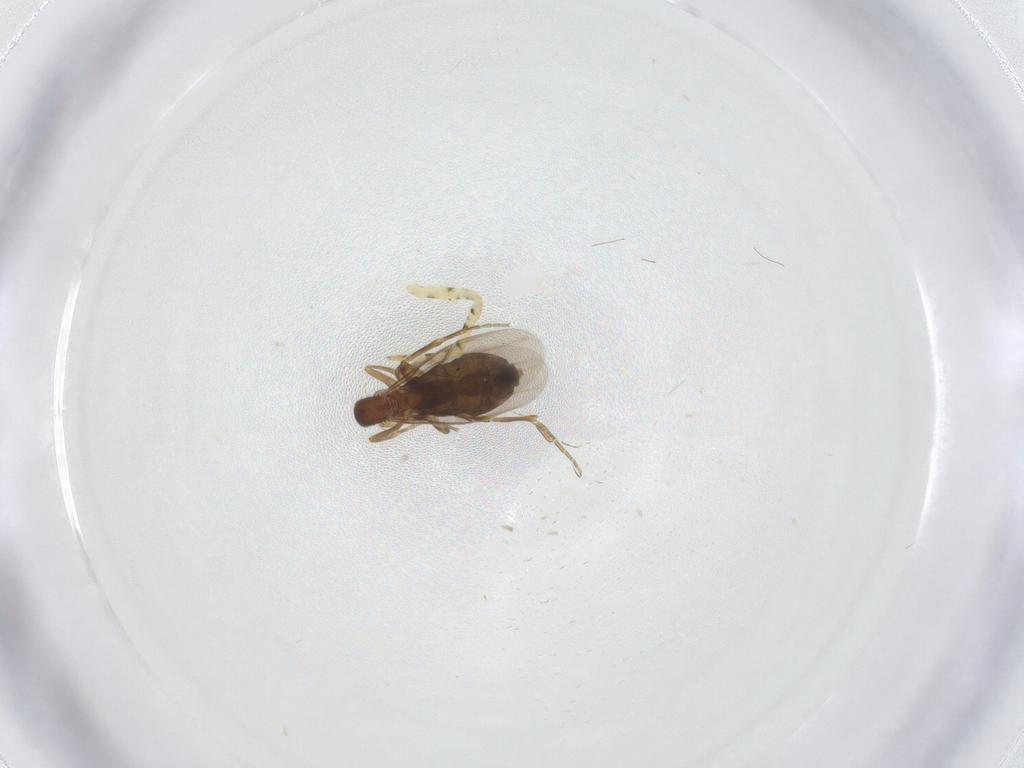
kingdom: Animalia
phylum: Arthropoda
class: Insecta
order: Diptera
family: Phoridae
